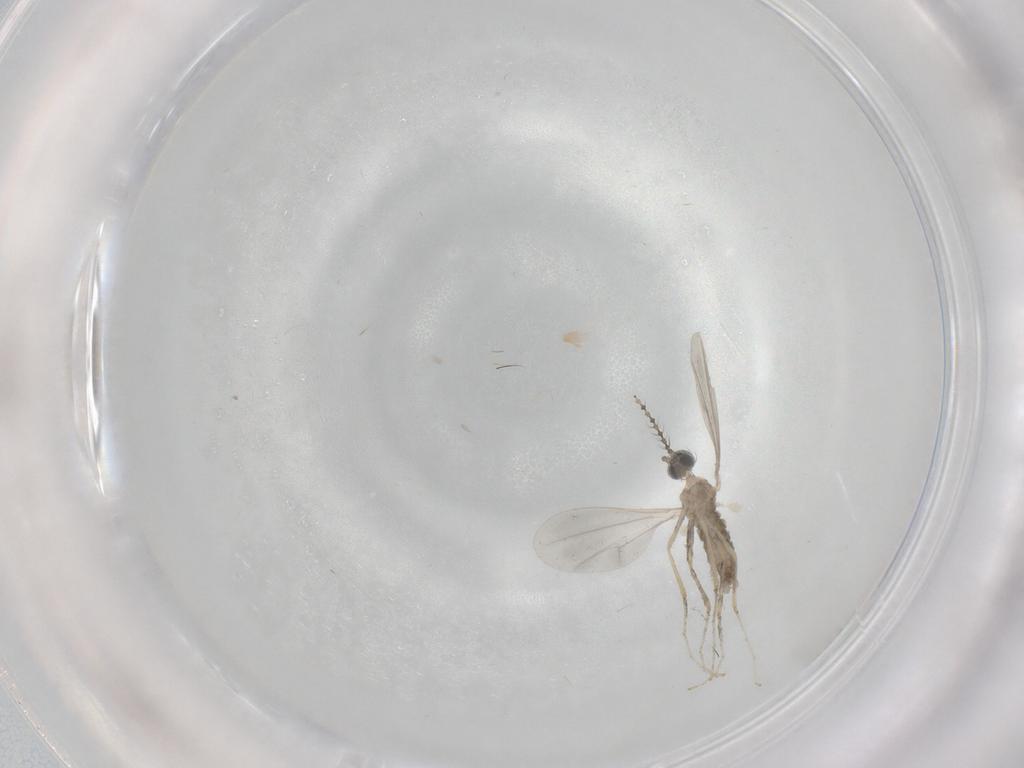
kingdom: Animalia
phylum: Arthropoda
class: Insecta
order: Diptera
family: Cecidomyiidae
